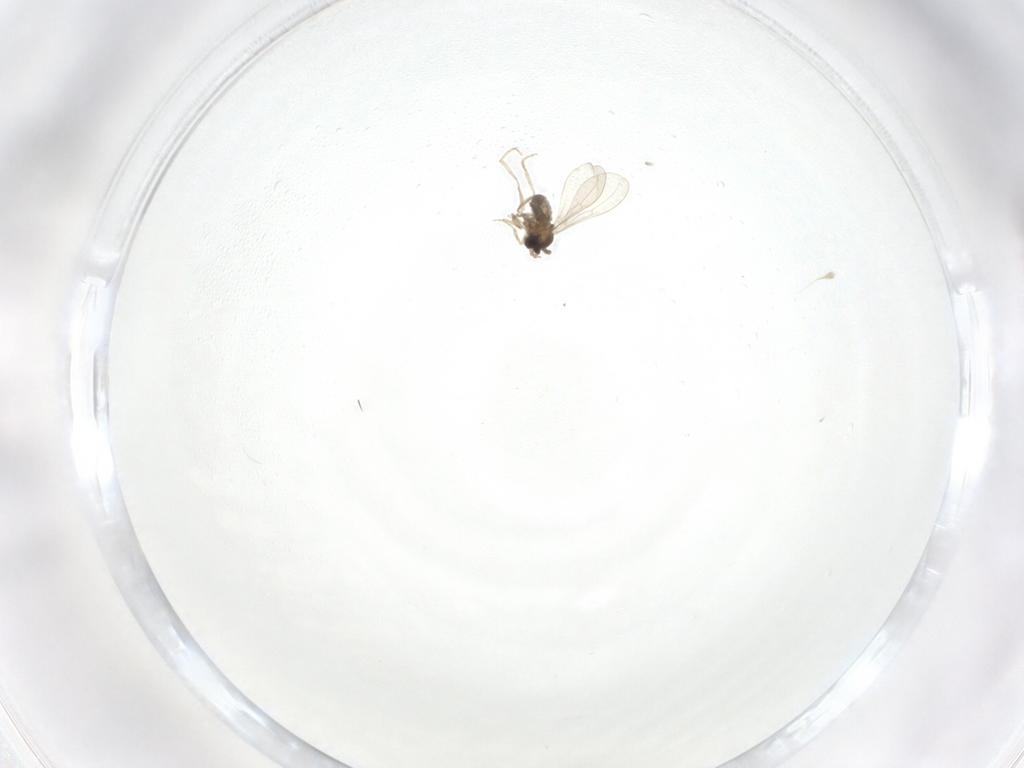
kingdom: Animalia
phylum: Arthropoda
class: Insecta
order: Diptera
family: Cecidomyiidae
